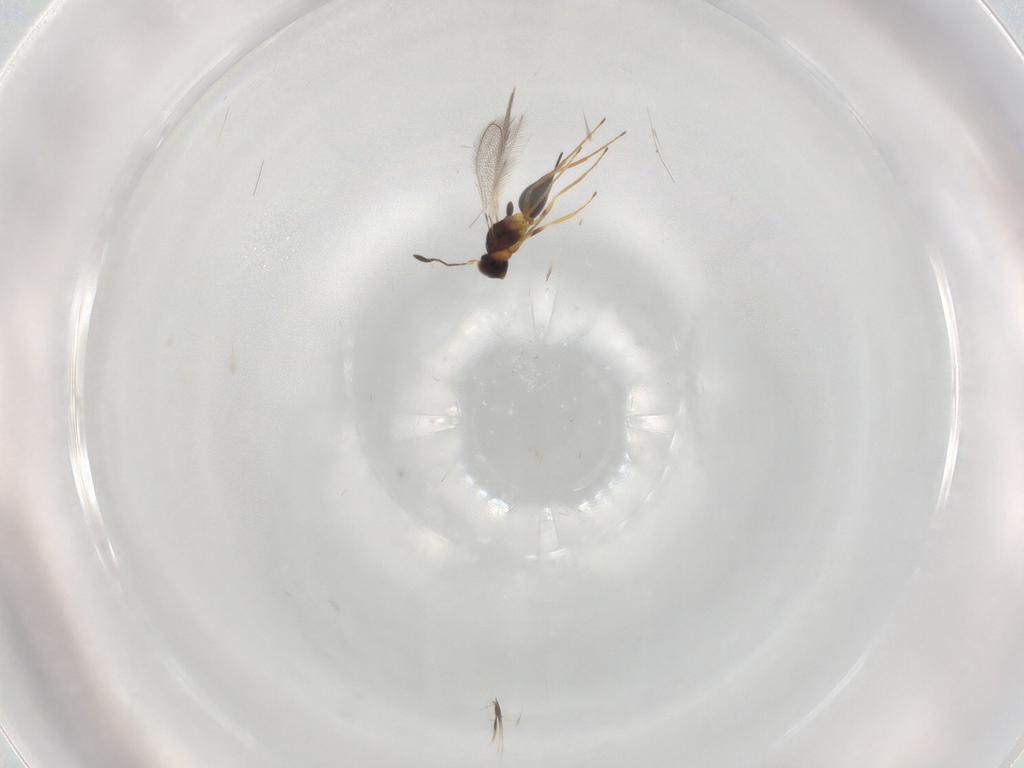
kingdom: Animalia
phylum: Arthropoda
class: Insecta
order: Hymenoptera
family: Mymaridae
